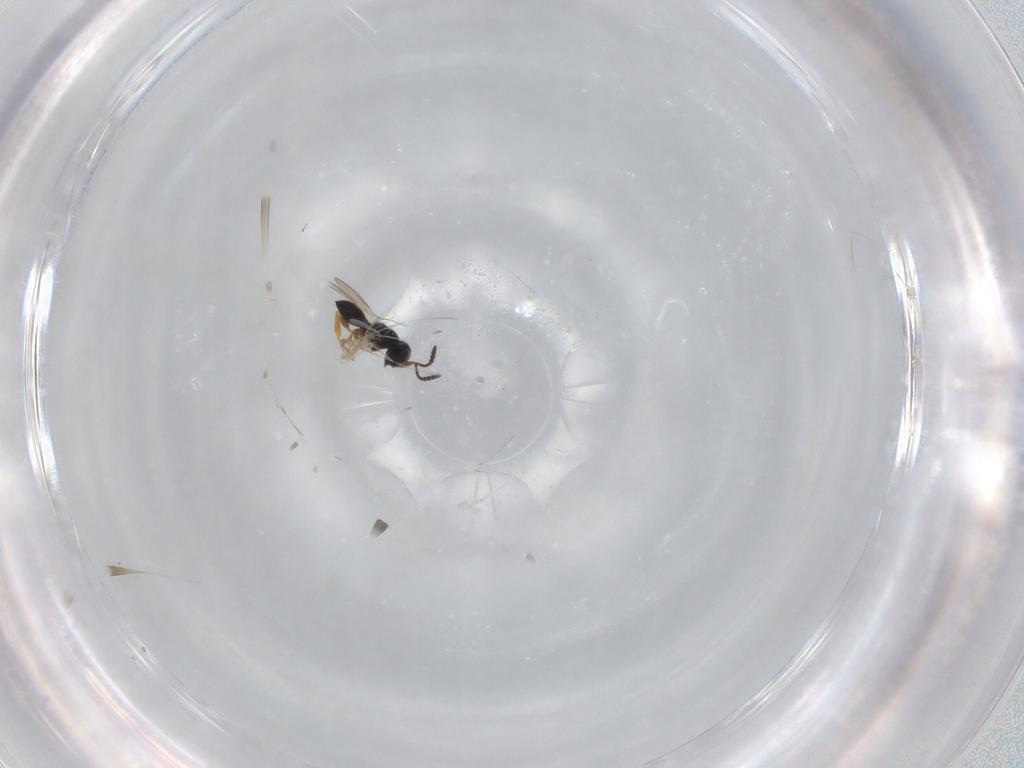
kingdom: Animalia
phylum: Arthropoda
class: Insecta
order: Hymenoptera
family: Scelionidae
